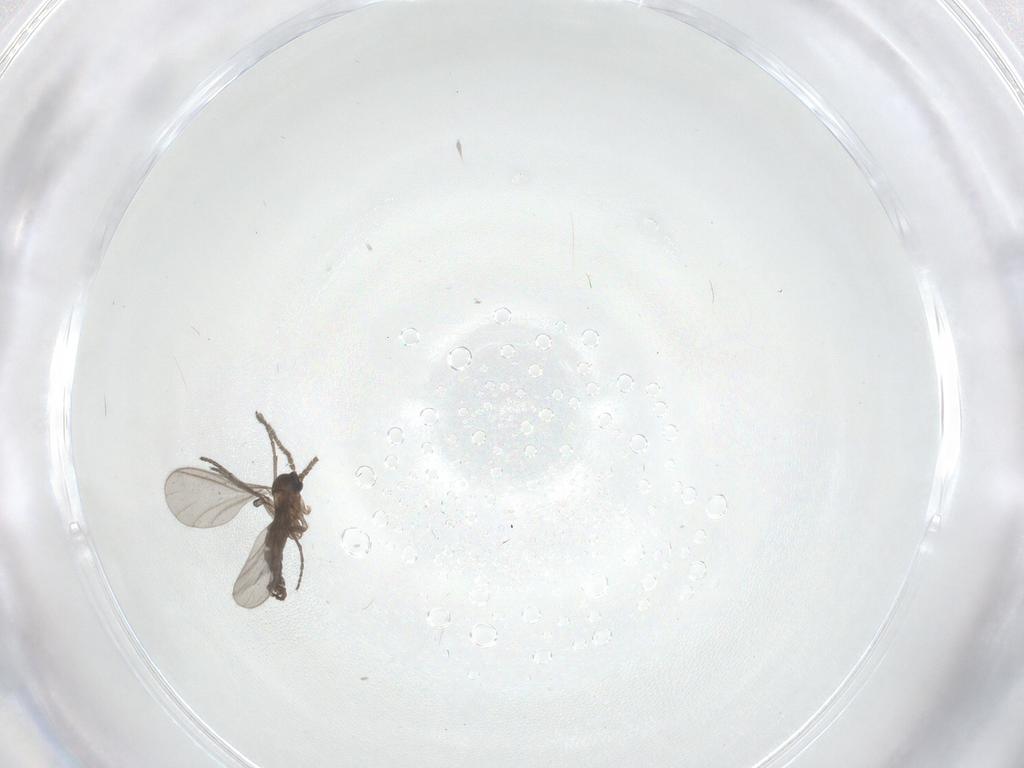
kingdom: Animalia
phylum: Arthropoda
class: Insecta
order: Diptera
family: Sciaridae
